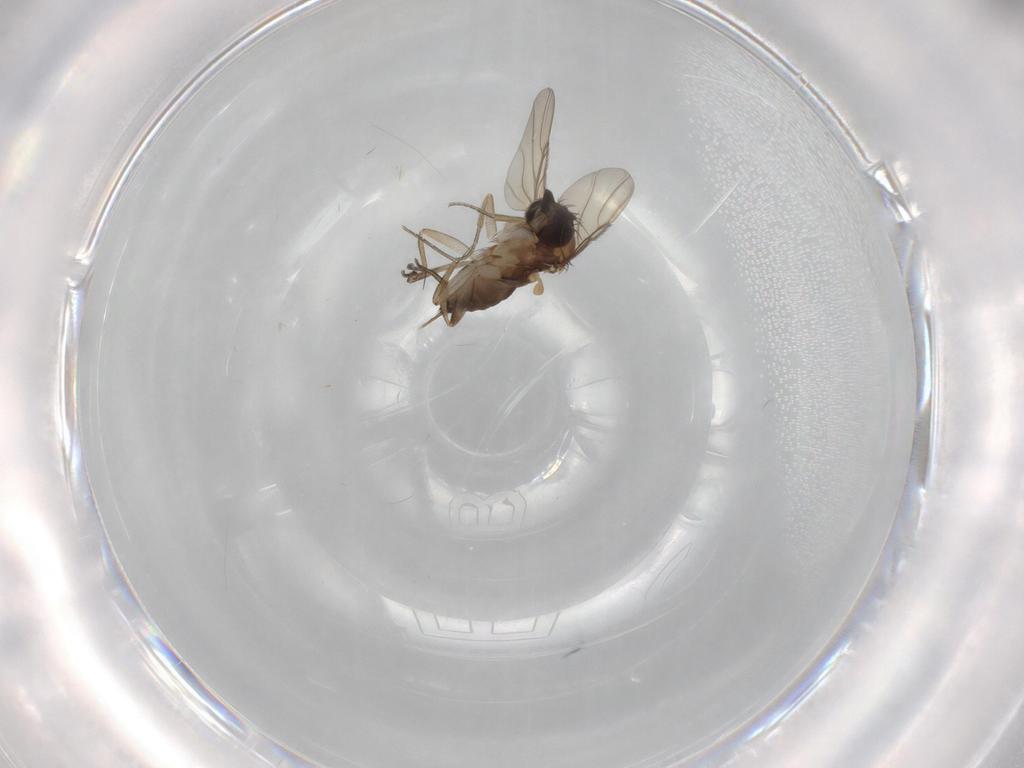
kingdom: Animalia
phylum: Arthropoda
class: Insecta
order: Diptera
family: Phoridae
